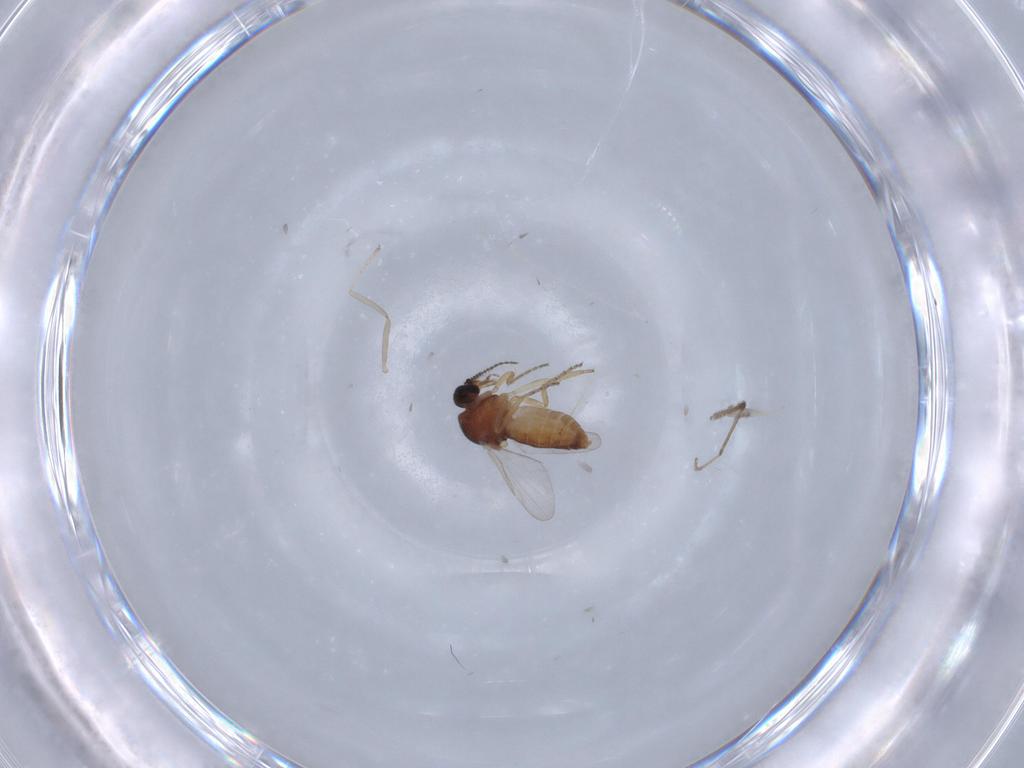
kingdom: Animalia
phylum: Arthropoda
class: Insecta
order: Diptera
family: Ceratopogonidae
